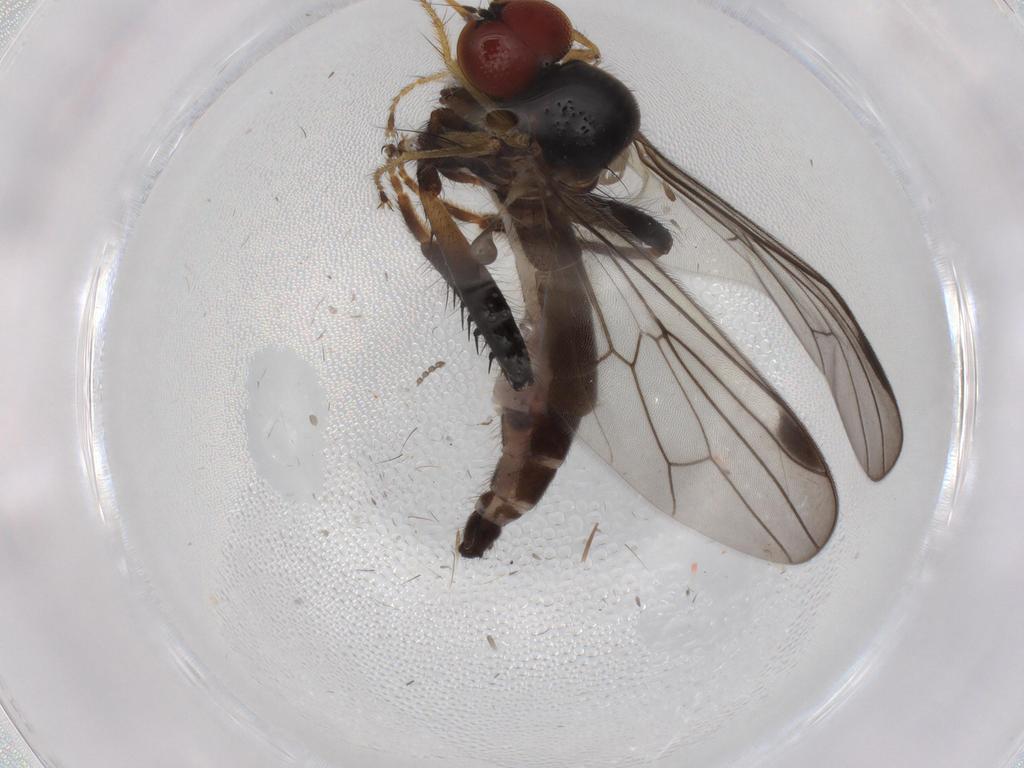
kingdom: Animalia
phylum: Arthropoda
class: Insecta
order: Diptera
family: Hybotidae
